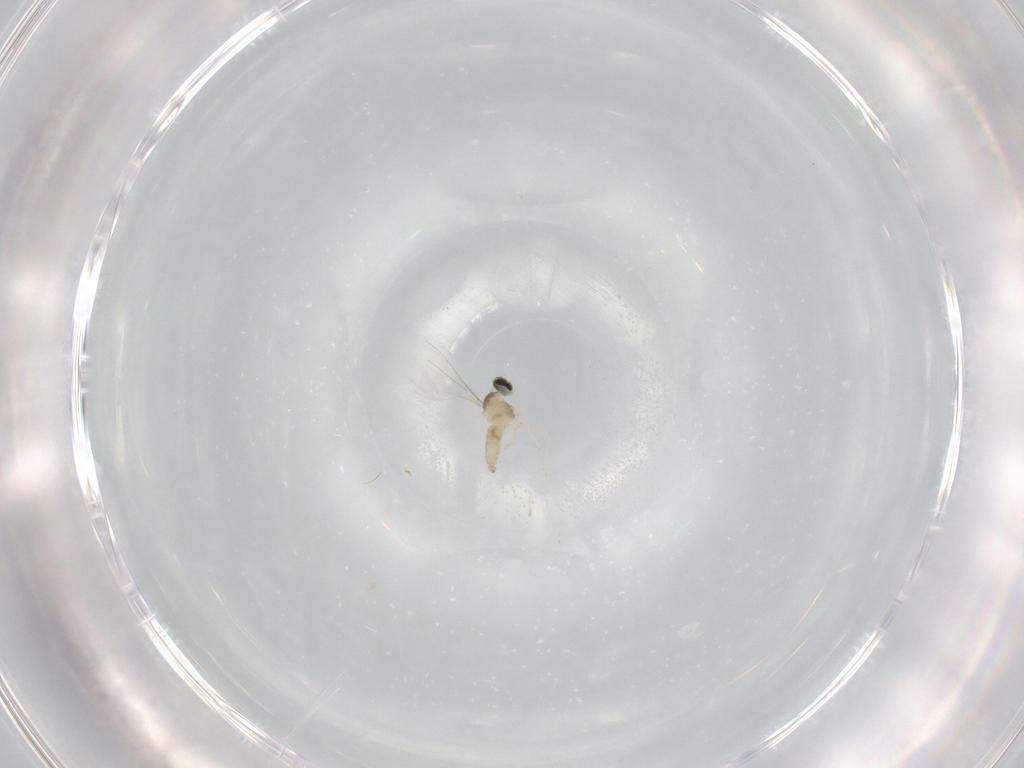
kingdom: Animalia
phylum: Arthropoda
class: Insecta
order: Diptera
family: Cecidomyiidae
